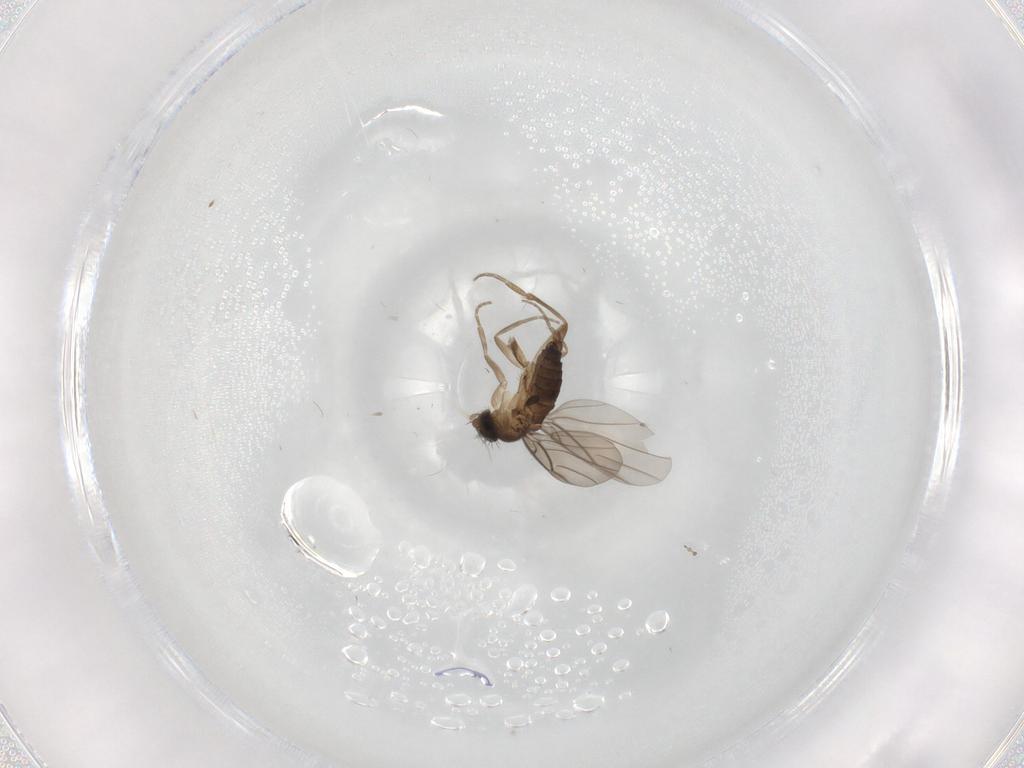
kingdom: Animalia
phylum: Arthropoda
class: Insecta
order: Diptera
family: Phoridae
